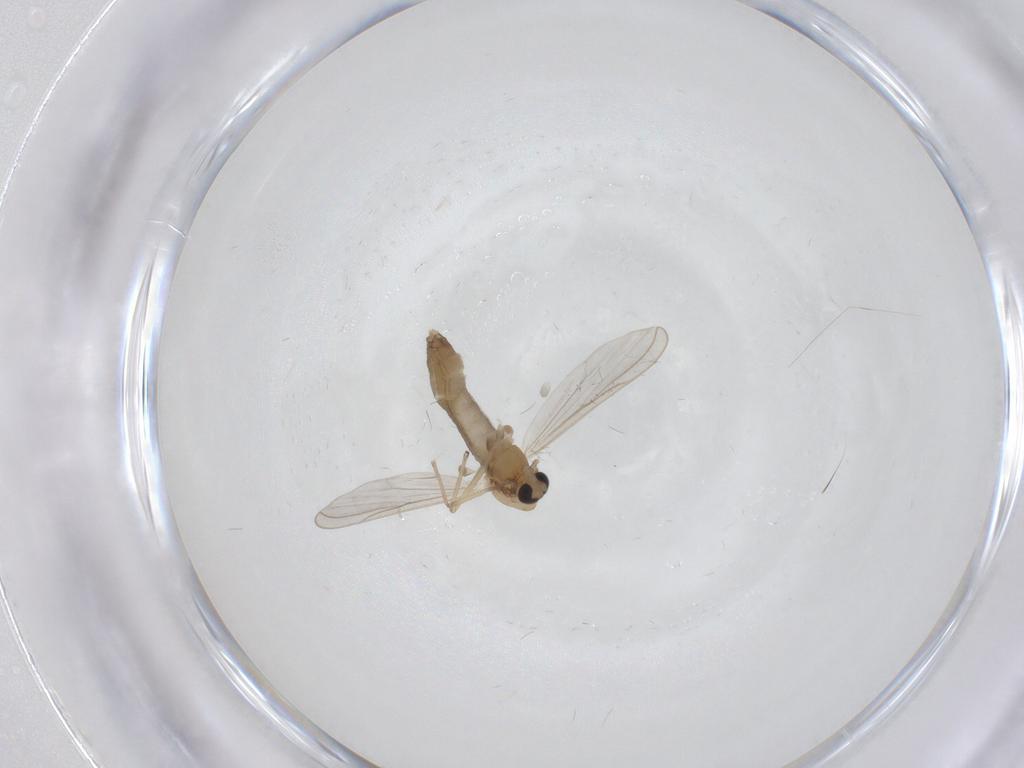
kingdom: Animalia
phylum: Arthropoda
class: Insecta
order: Diptera
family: Chironomidae
